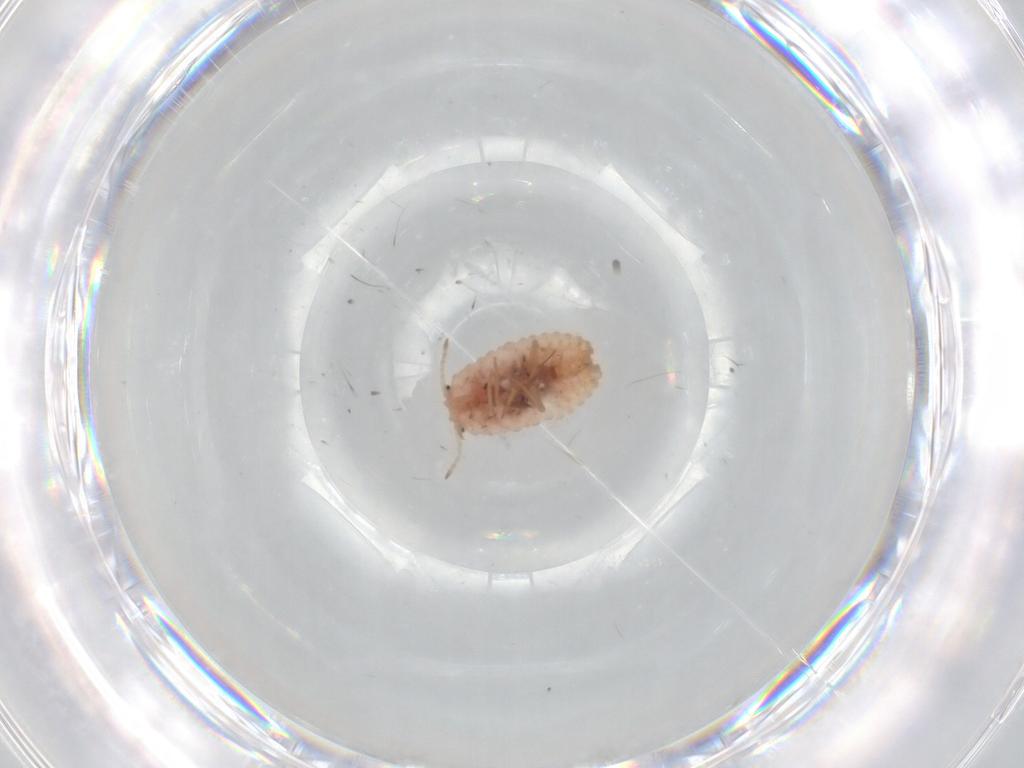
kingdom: Animalia
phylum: Arthropoda
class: Insecta
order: Hemiptera
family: Coccoidea_incertae_sedis
